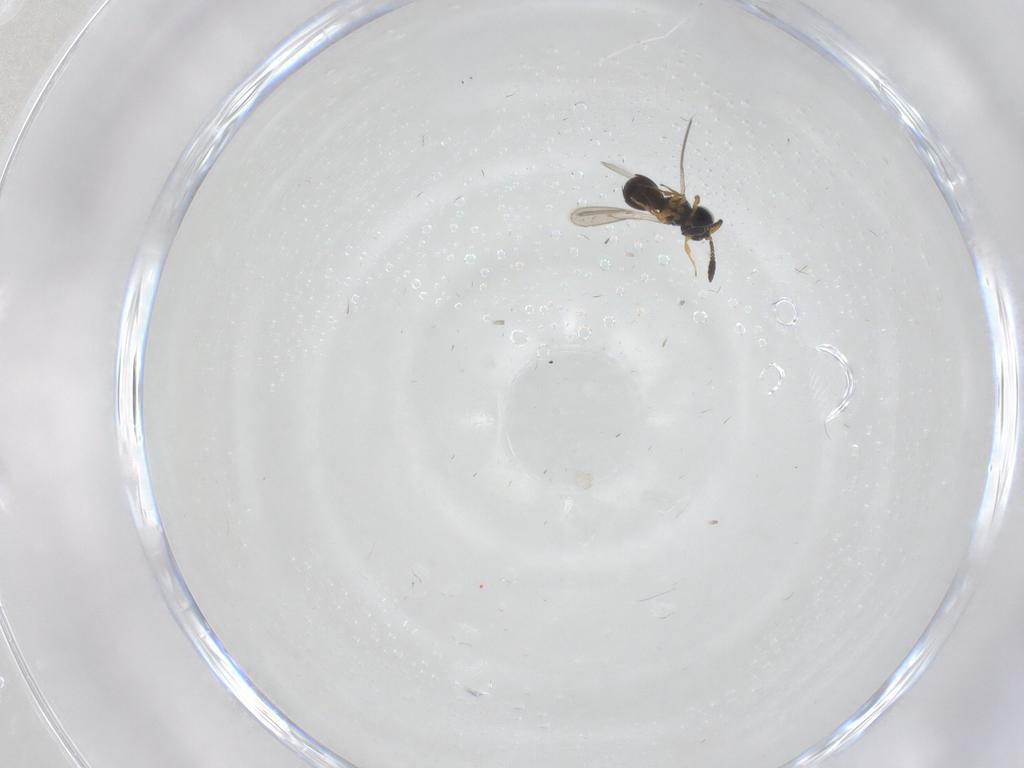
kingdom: Animalia
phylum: Arthropoda
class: Insecta
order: Hymenoptera
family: Scelionidae
